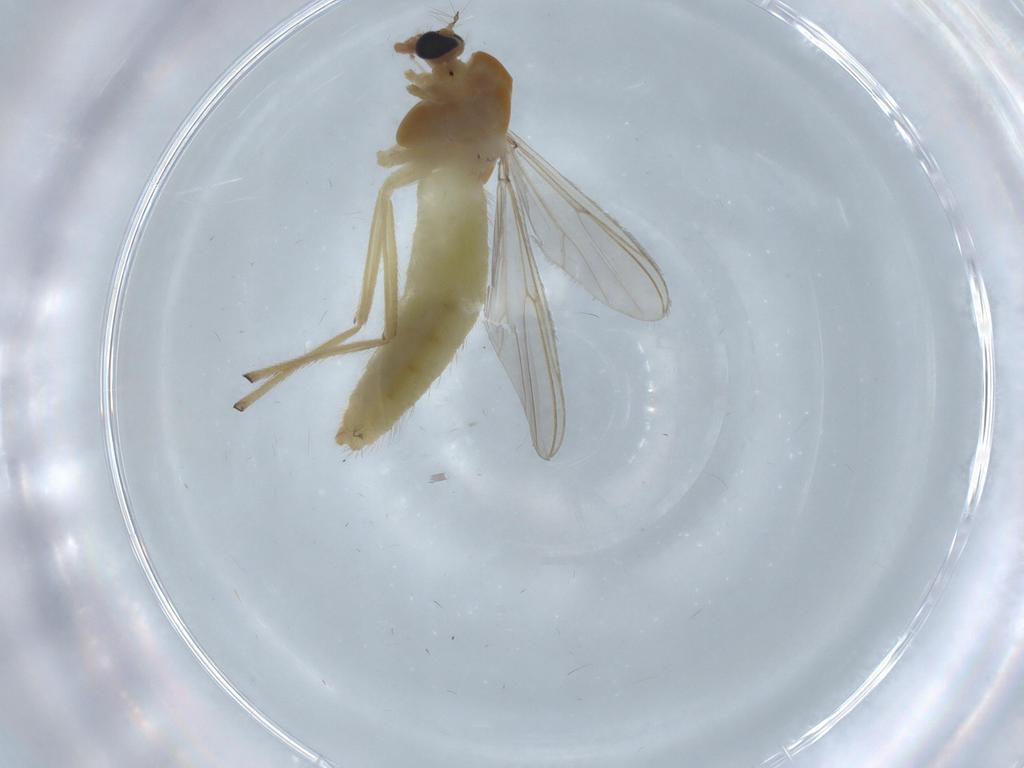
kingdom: Animalia
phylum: Arthropoda
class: Insecta
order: Diptera
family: Chironomidae
